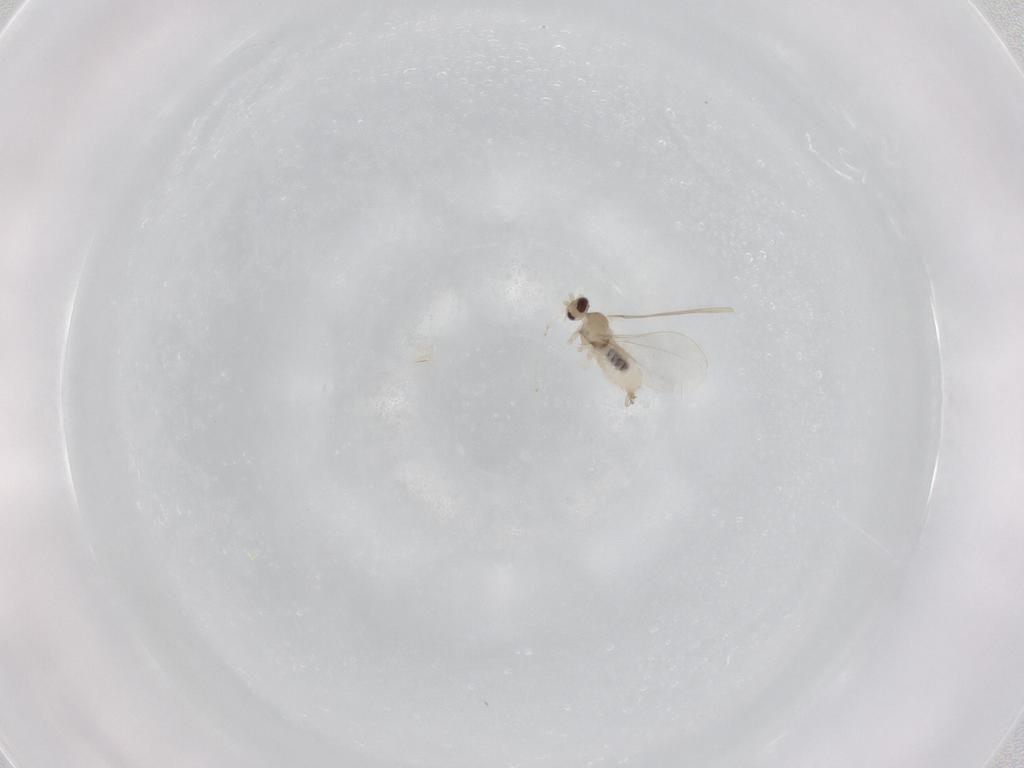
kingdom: Animalia
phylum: Arthropoda
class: Insecta
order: Diptera
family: Cecidomyiidae
